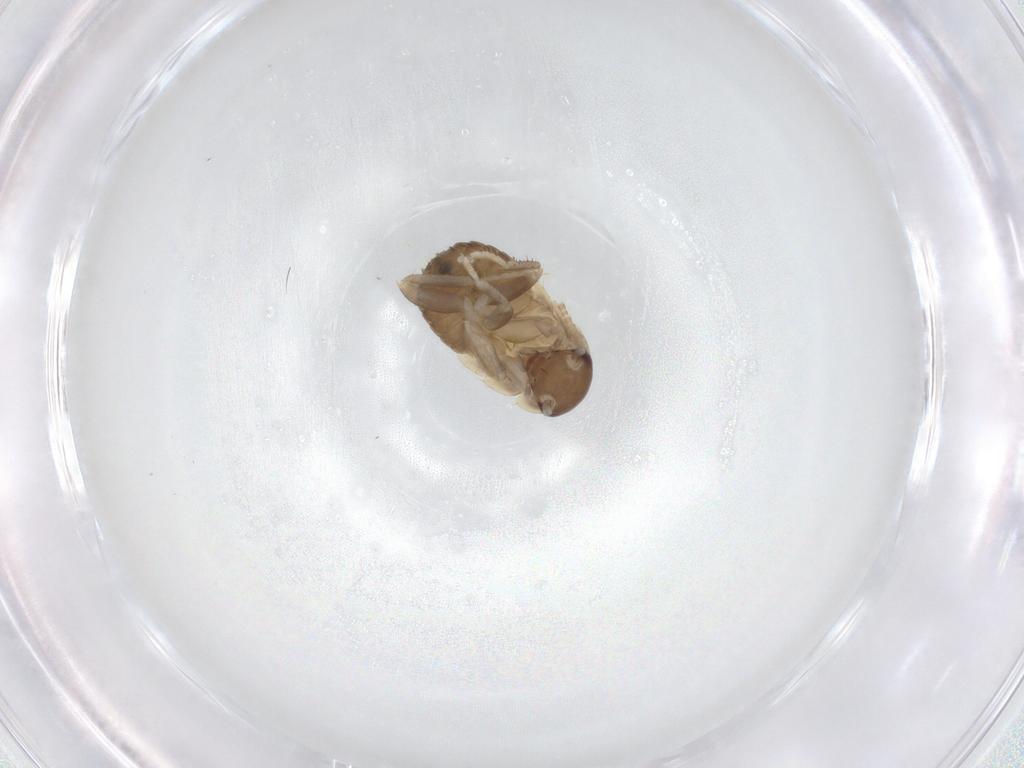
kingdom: Animalia
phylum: Arthropoda
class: Insecta
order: Blattodea
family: Ectobiidae
